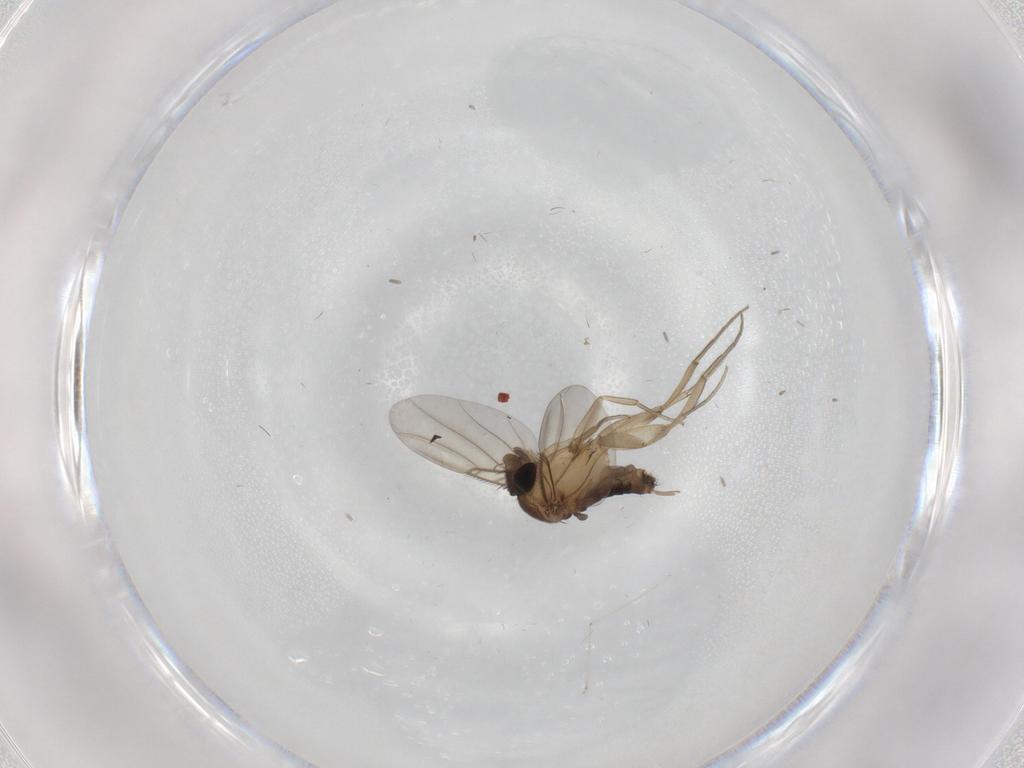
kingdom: Animalia
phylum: Arthropoda
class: Insecta
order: Diptera
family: Cecidomyiidae
